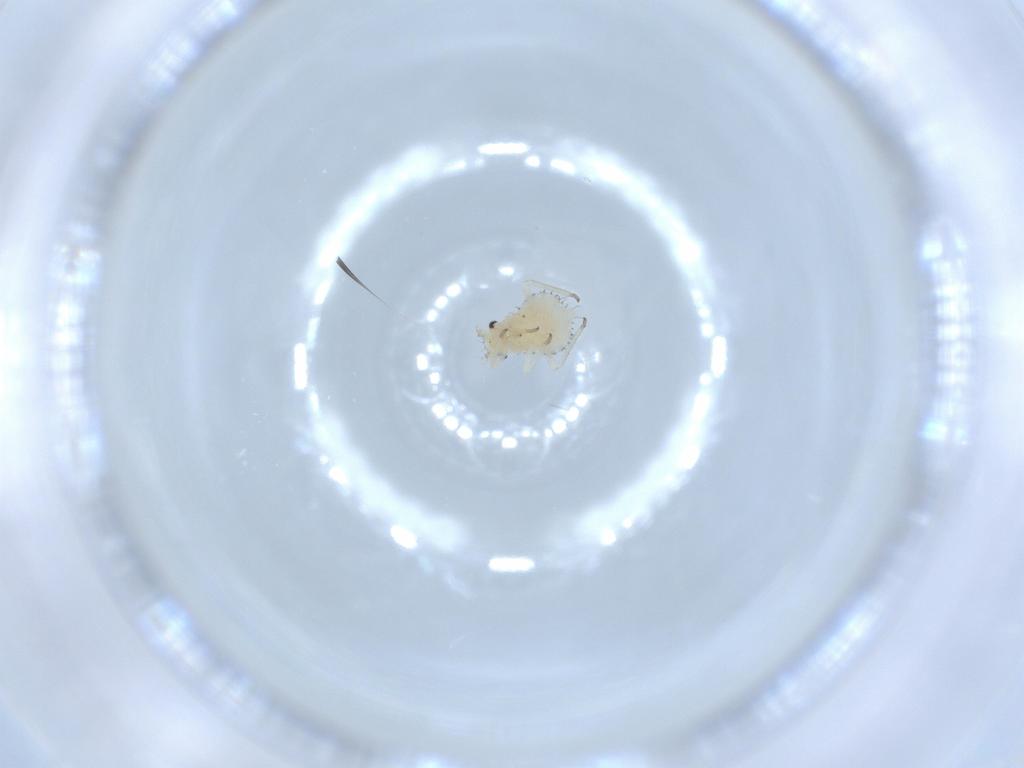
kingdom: Animalia
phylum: Arthropoda
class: Insecta
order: Hemiptera
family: Aphididae
